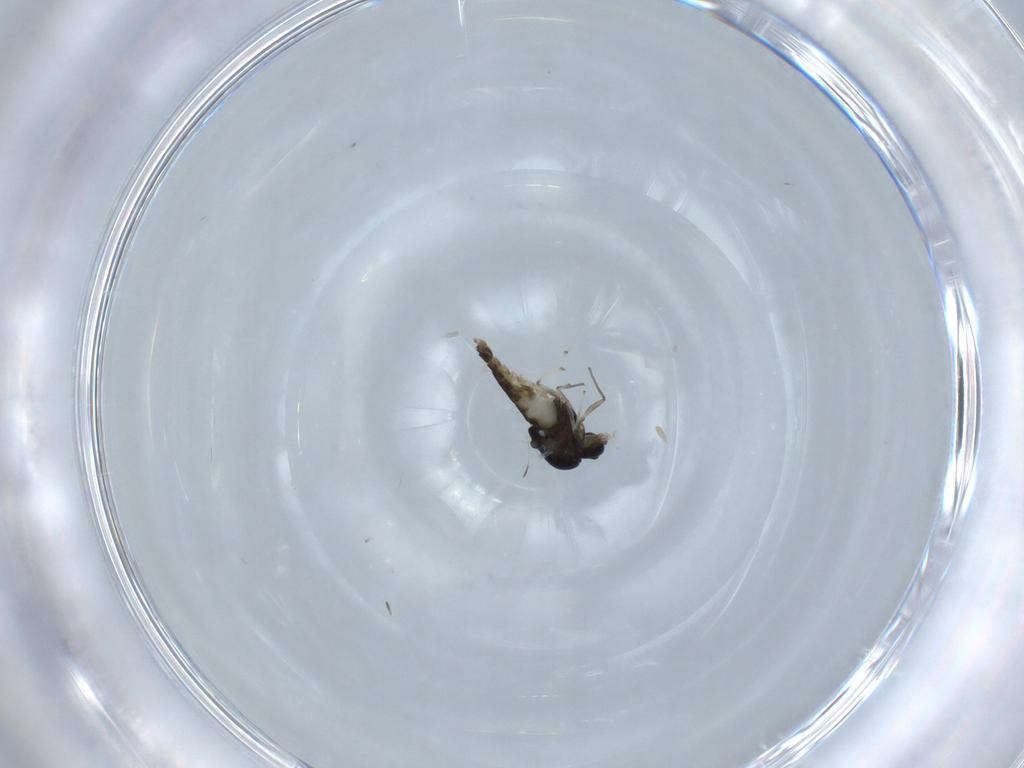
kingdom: Animalia
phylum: Arthropoda
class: Insecta
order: Diptera
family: Chironomidae
